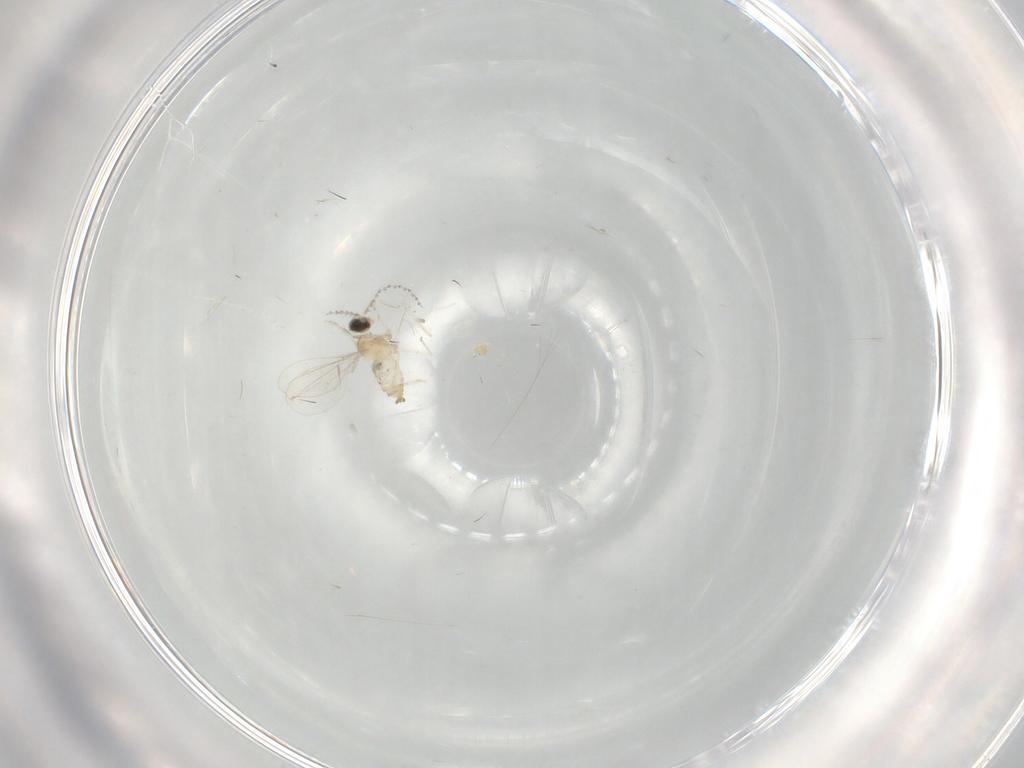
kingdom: Animalia
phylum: Arthropoda
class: Insecta
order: Diptera
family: Cecidomyiidae
